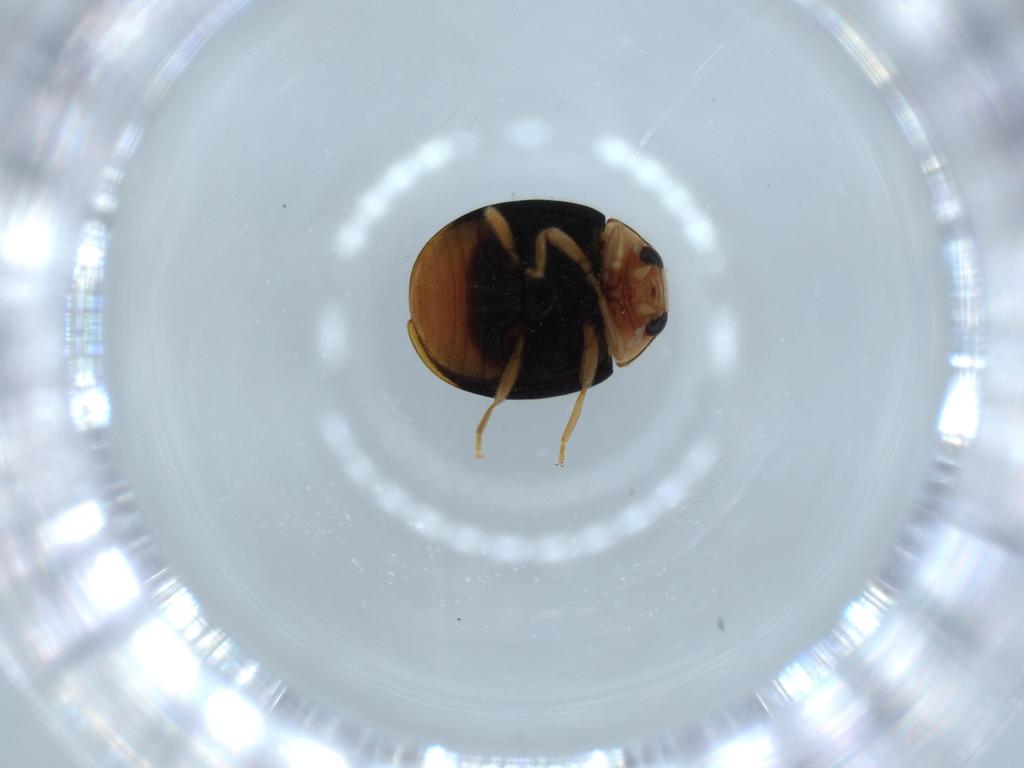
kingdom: Animalia
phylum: Arthropoda
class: Insecta
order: Coleoptera
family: Coccinellidae
